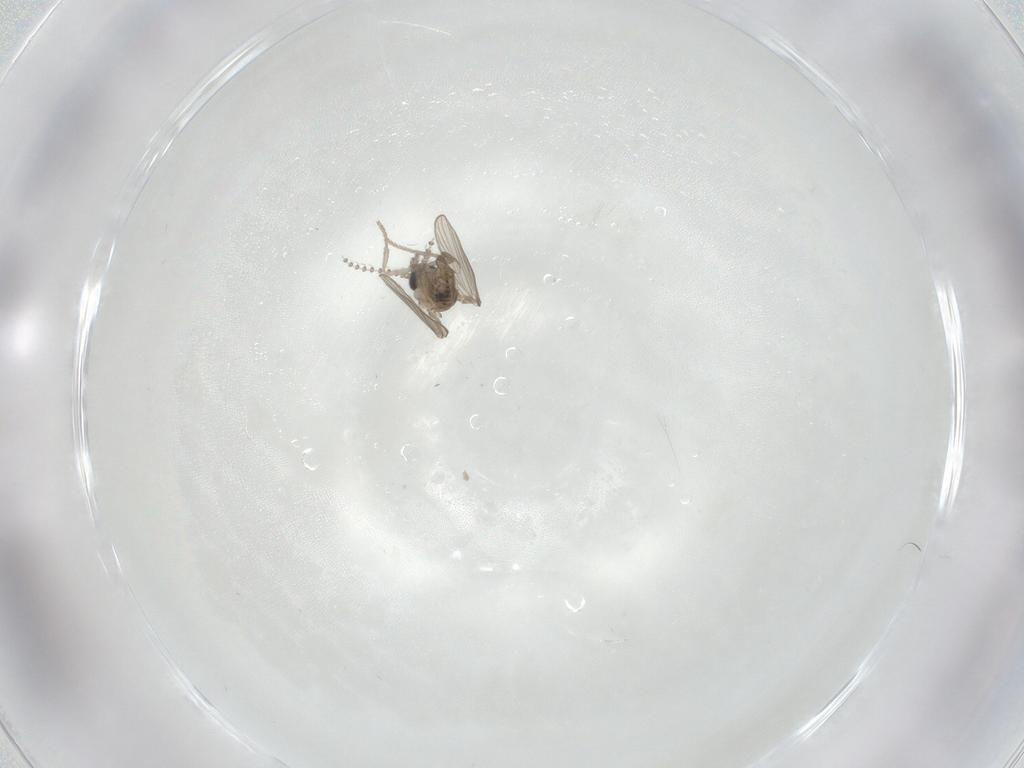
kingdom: Animalia
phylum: Arthropoda
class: Insecta
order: Diptera
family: Psychodidae
